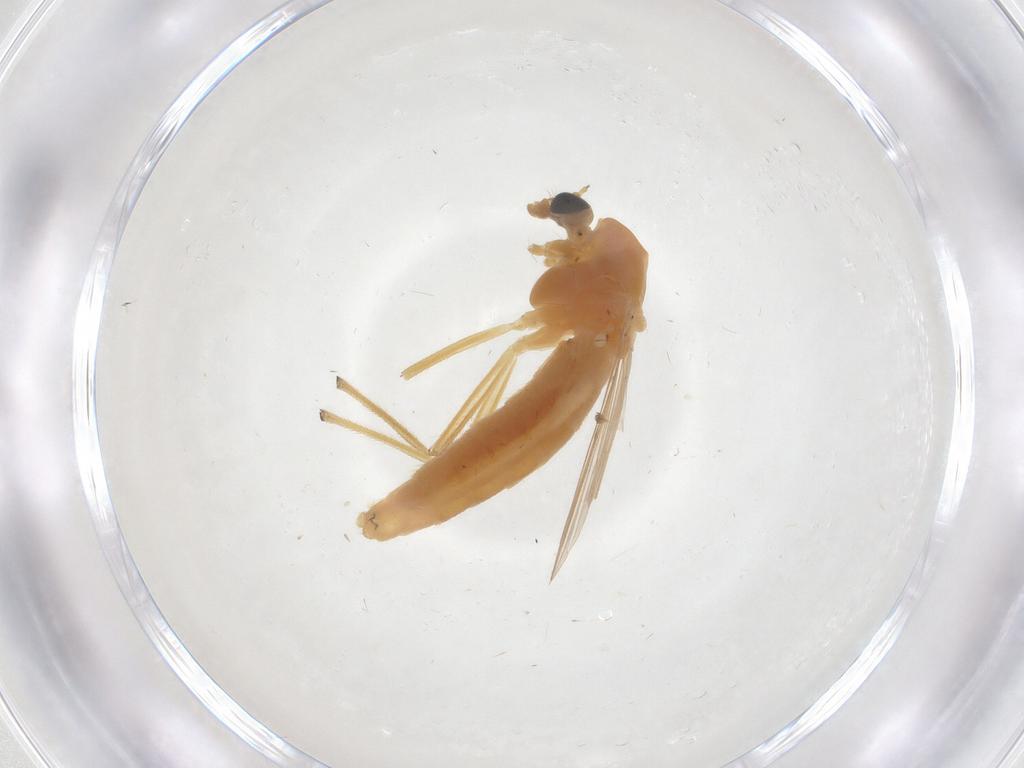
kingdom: Animalia
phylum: Arthropoda
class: Insecta
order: Diptera
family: Chironomidae
